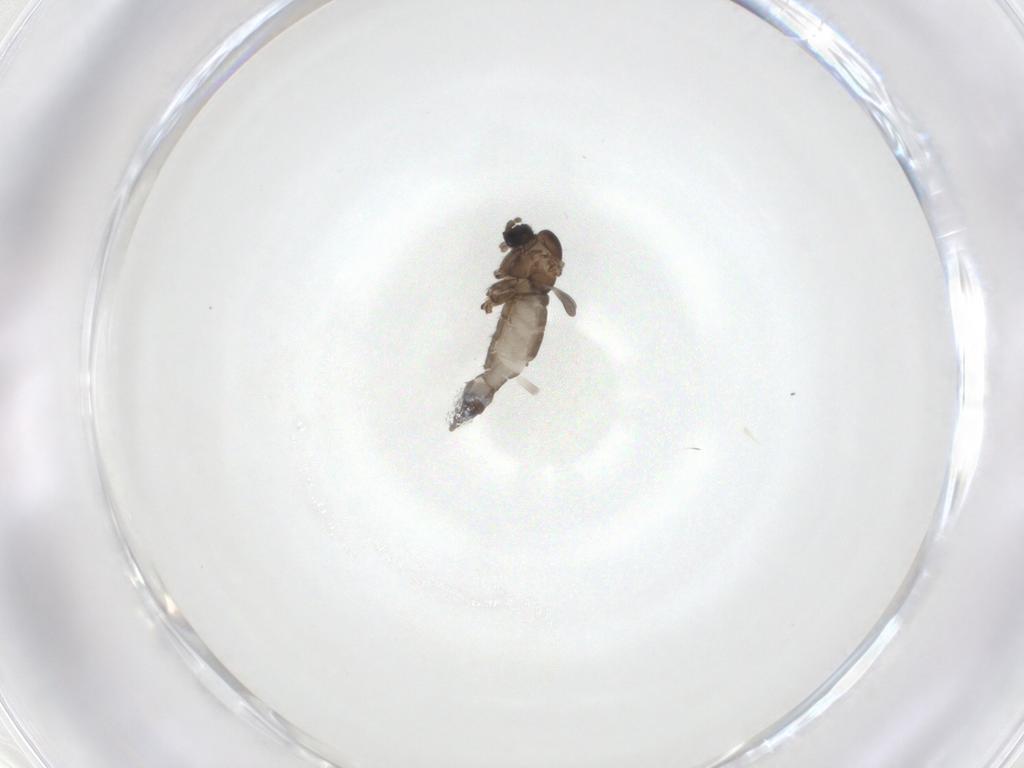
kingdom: Animalia
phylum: Arthropoda
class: Insecta
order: Diptera
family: Sciaridae
